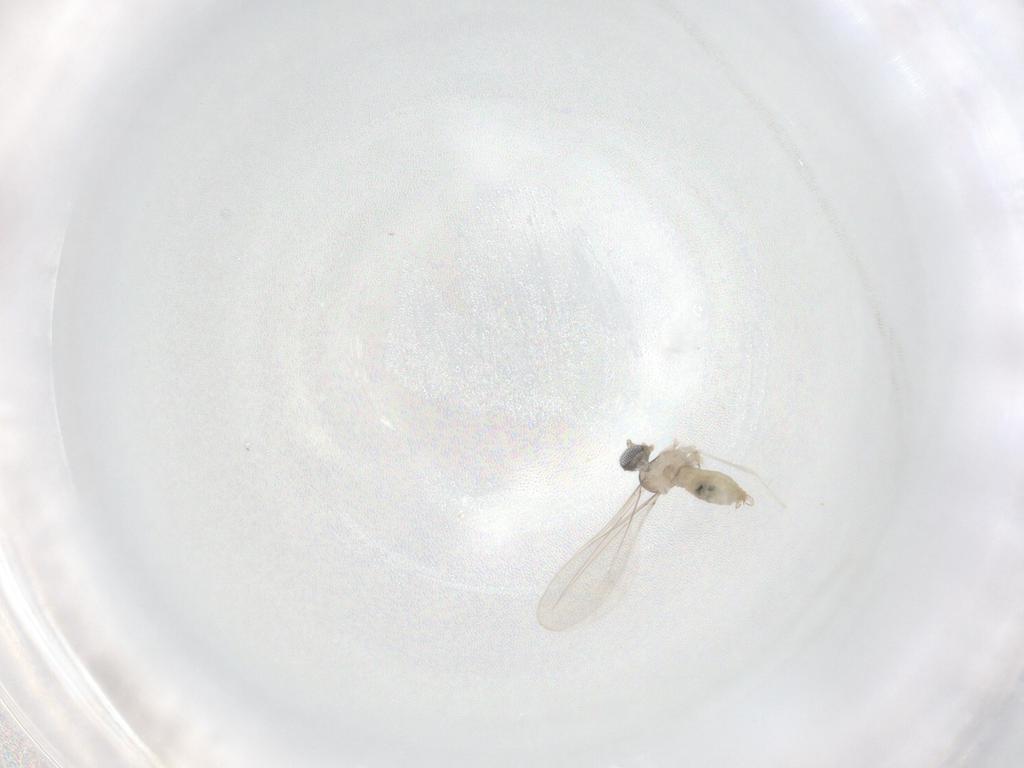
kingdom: Animalia
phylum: Arthropoda
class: Insecta
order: Diptera
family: Cecidomyiidae
